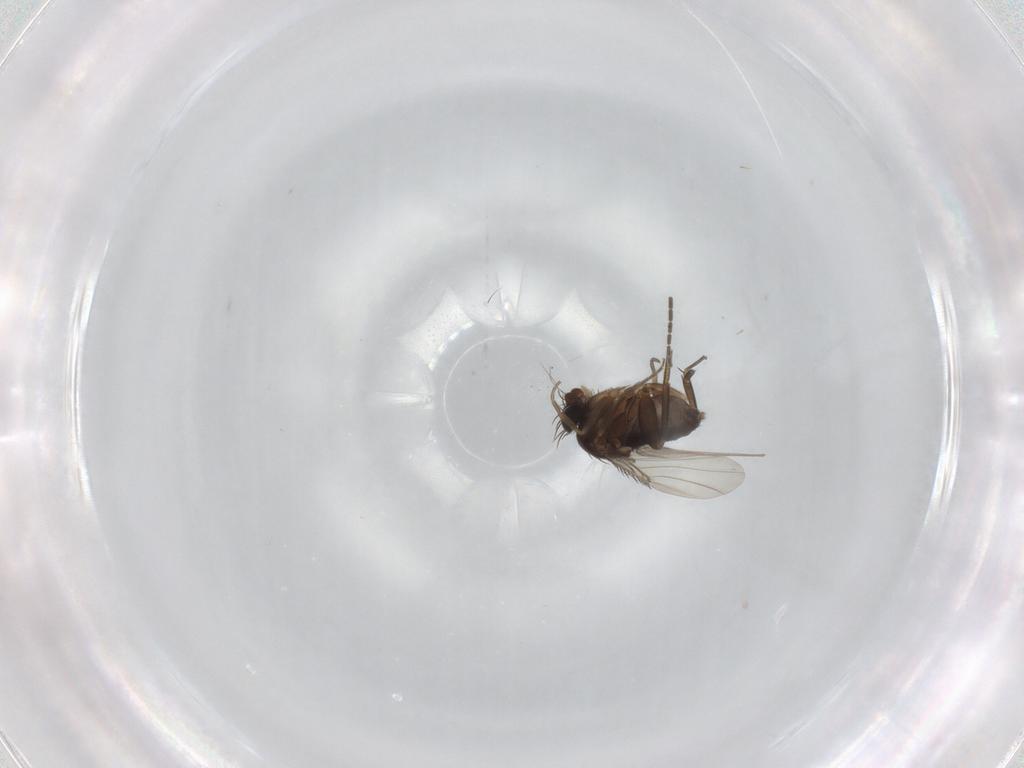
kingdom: Animalia
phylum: Arthropoda
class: Insecta
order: Diptera
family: Phoridae
